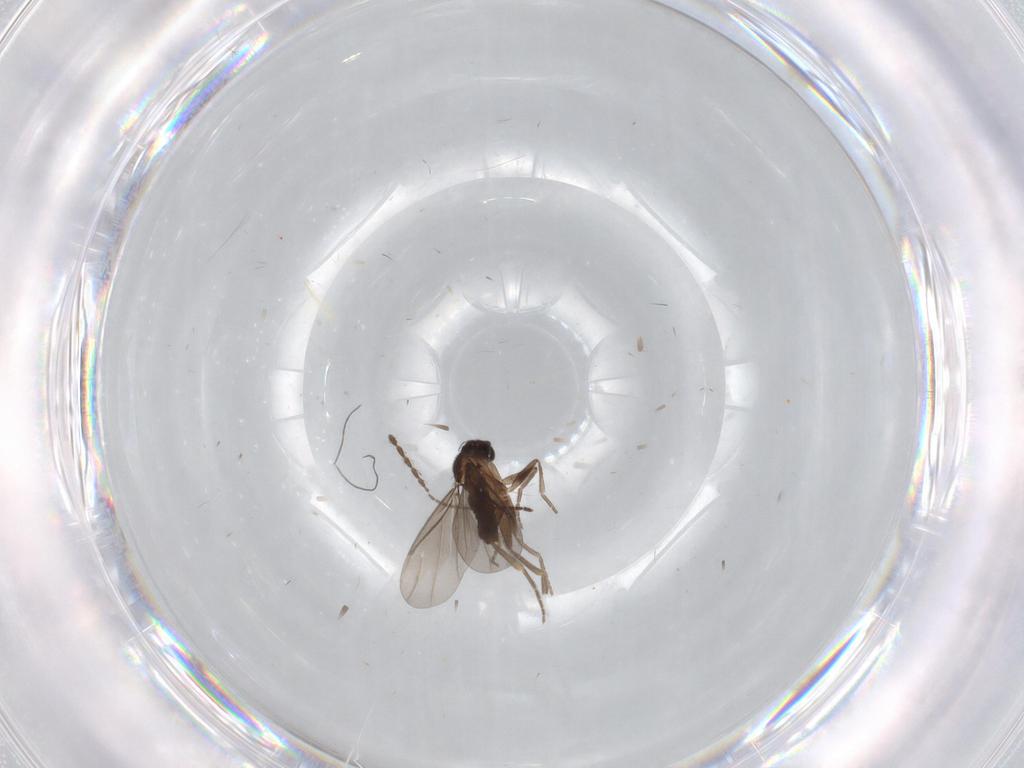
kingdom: Animalia
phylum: Arthropoda
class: Insecta
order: Diptera
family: Sciaridae
